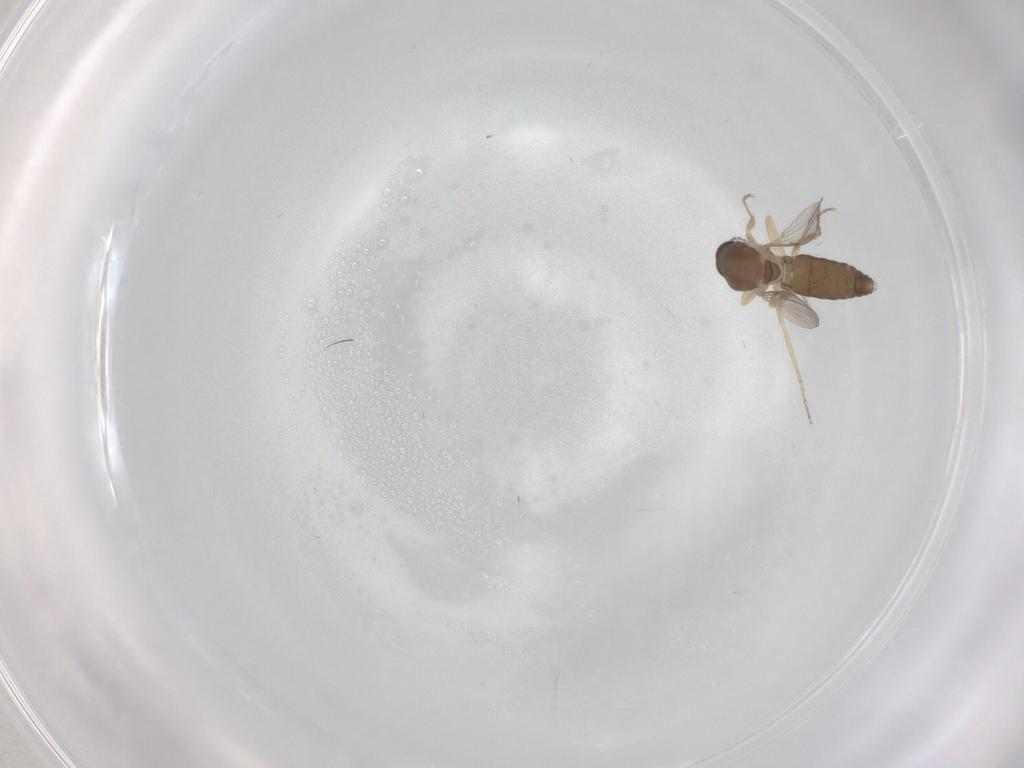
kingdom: Animalia
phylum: Arthropoda
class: Insecta
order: Diptera
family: Ceratopogonidae
